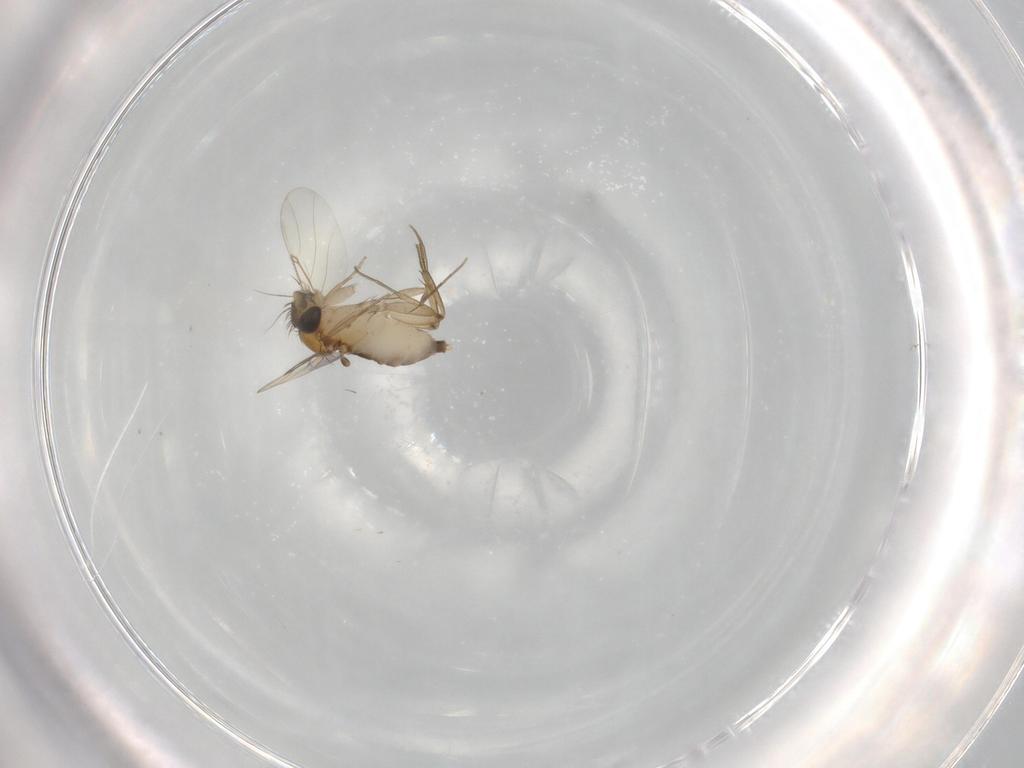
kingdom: Animalia
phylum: Arthropoda
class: Insecta
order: Diptera
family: Phoridae
